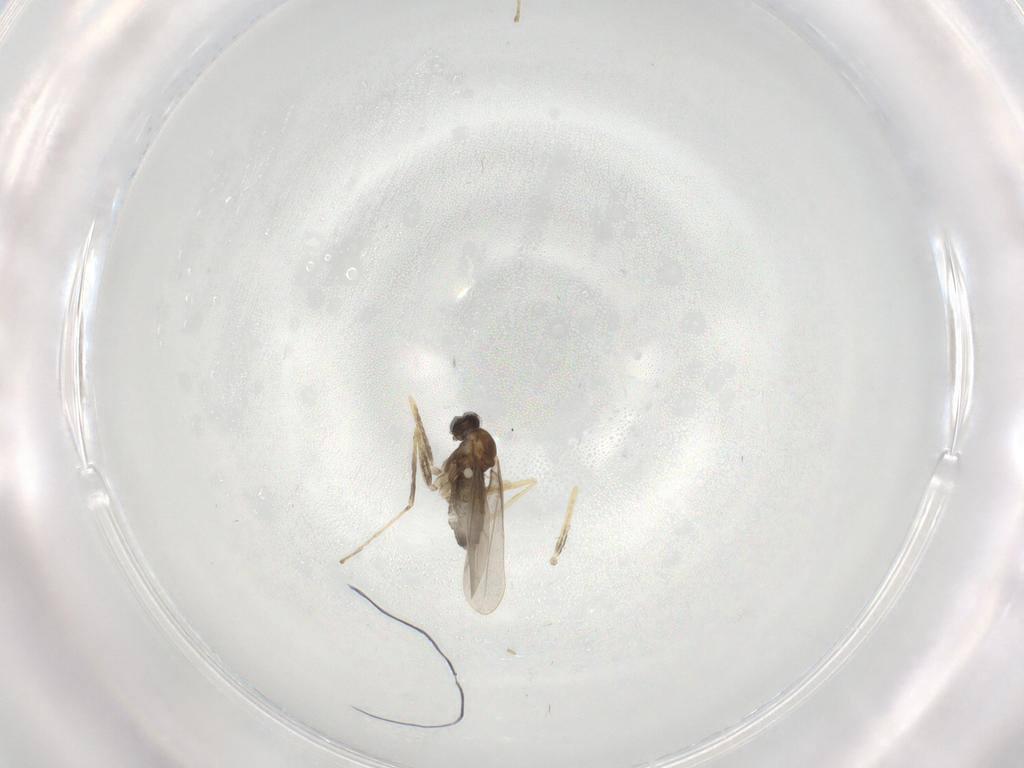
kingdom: Animalia
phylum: Arthropoda
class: Insecta
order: Diptera
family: Cecidomyiidae
